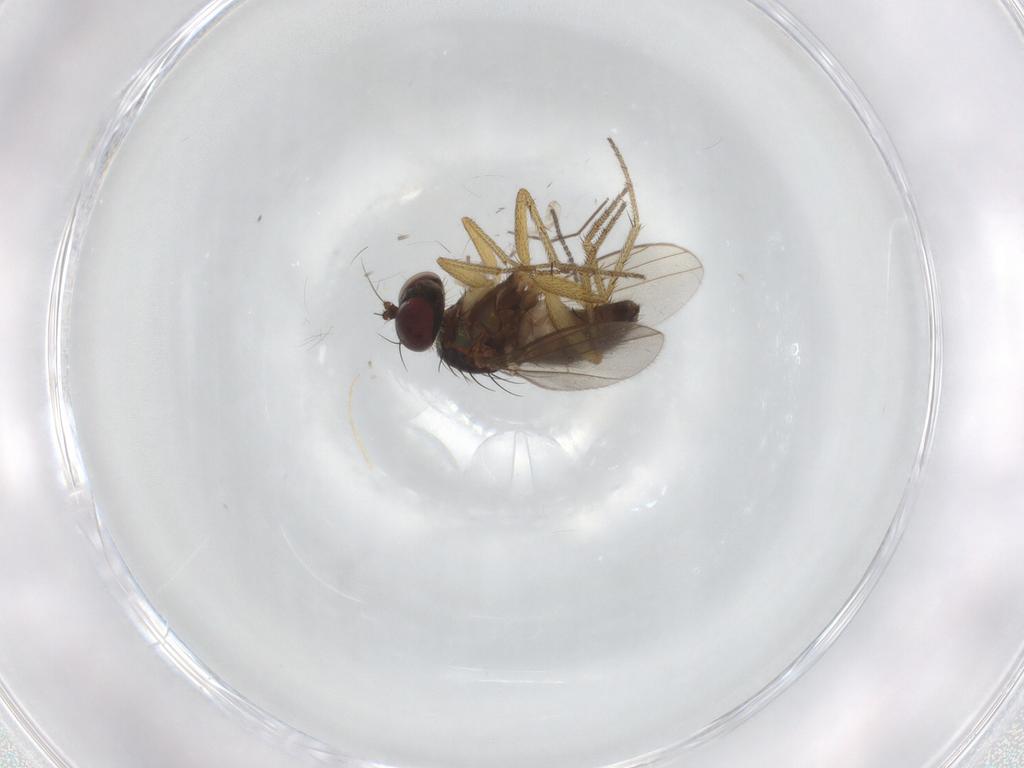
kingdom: Animalia
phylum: Arthropoda
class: Insecta
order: Diptera
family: Sciaridae
